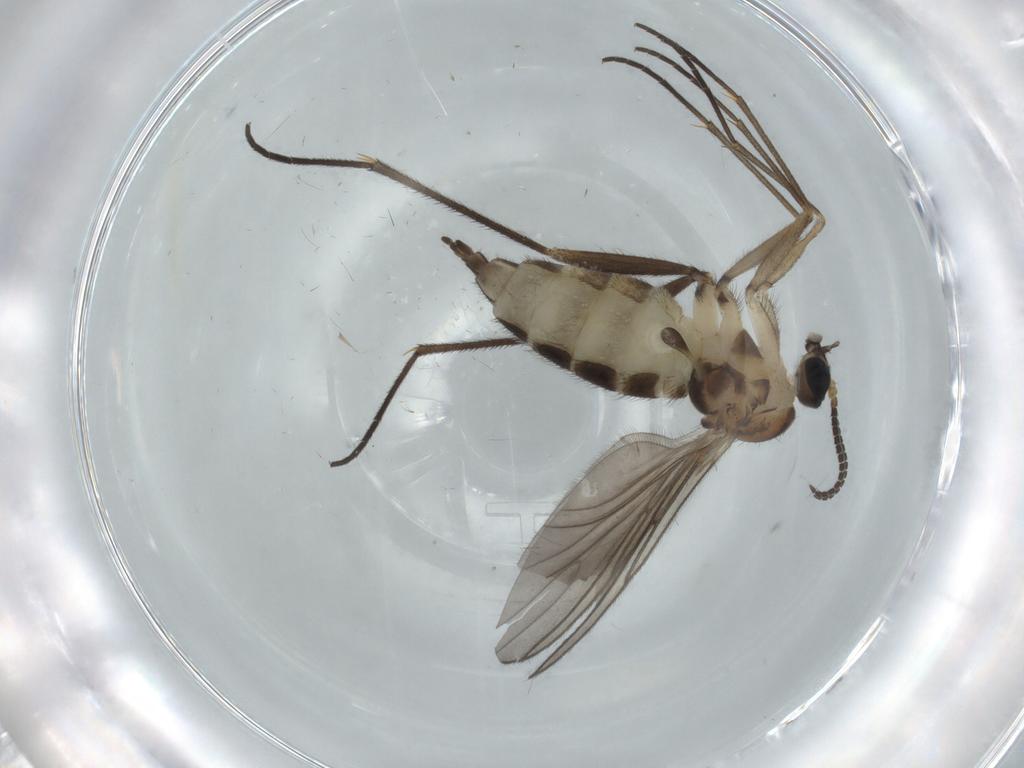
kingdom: Animalia
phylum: Arthropoda
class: Insecta
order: Diptera
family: Sciaridae
